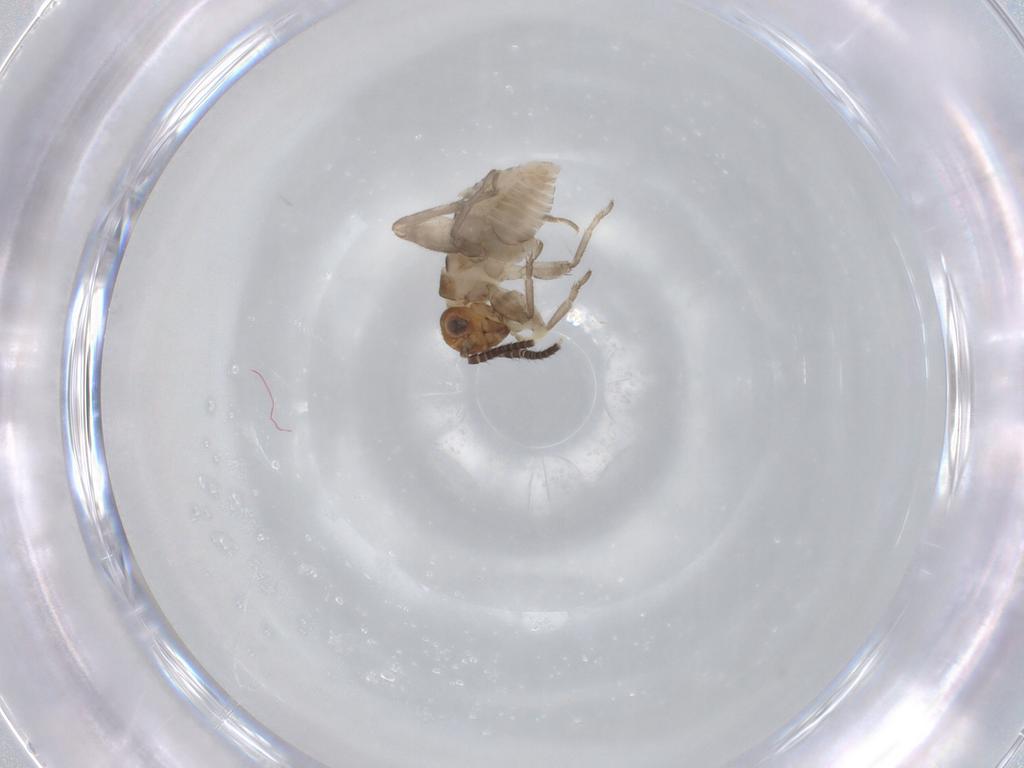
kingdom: Animalia
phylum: Arthropoda
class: Insecta
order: Orthoptera
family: Mogoplistidae
